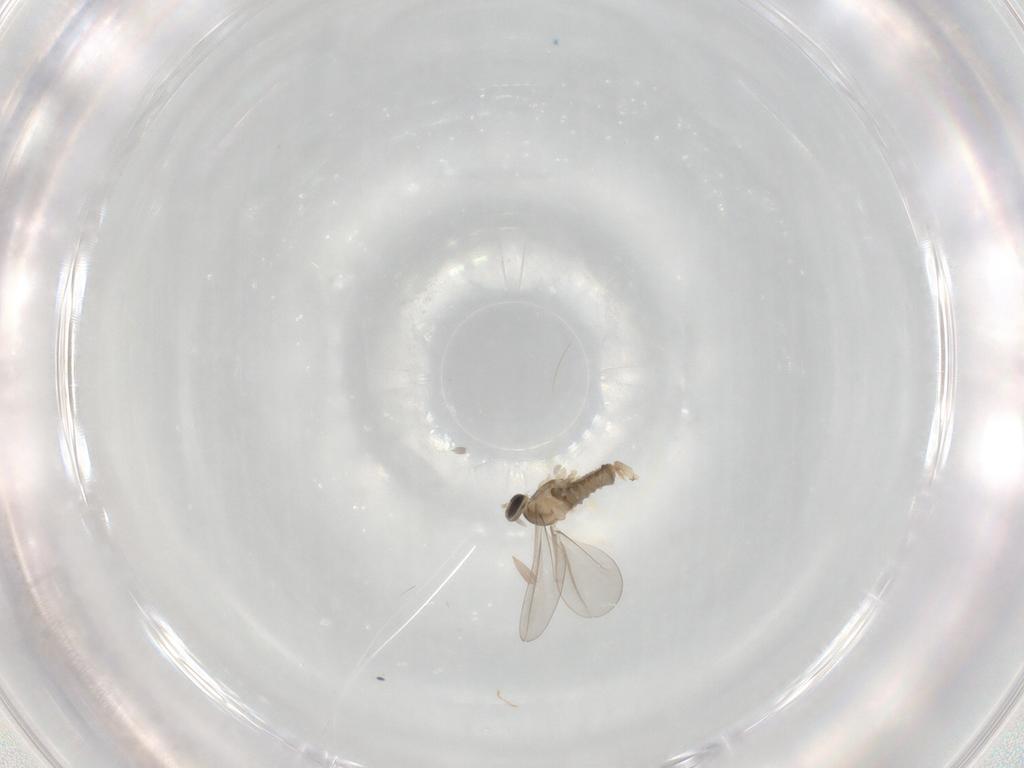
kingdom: Animalia
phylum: Arthropoda
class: Insecta
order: Diptera
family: Cecidomyiidae
